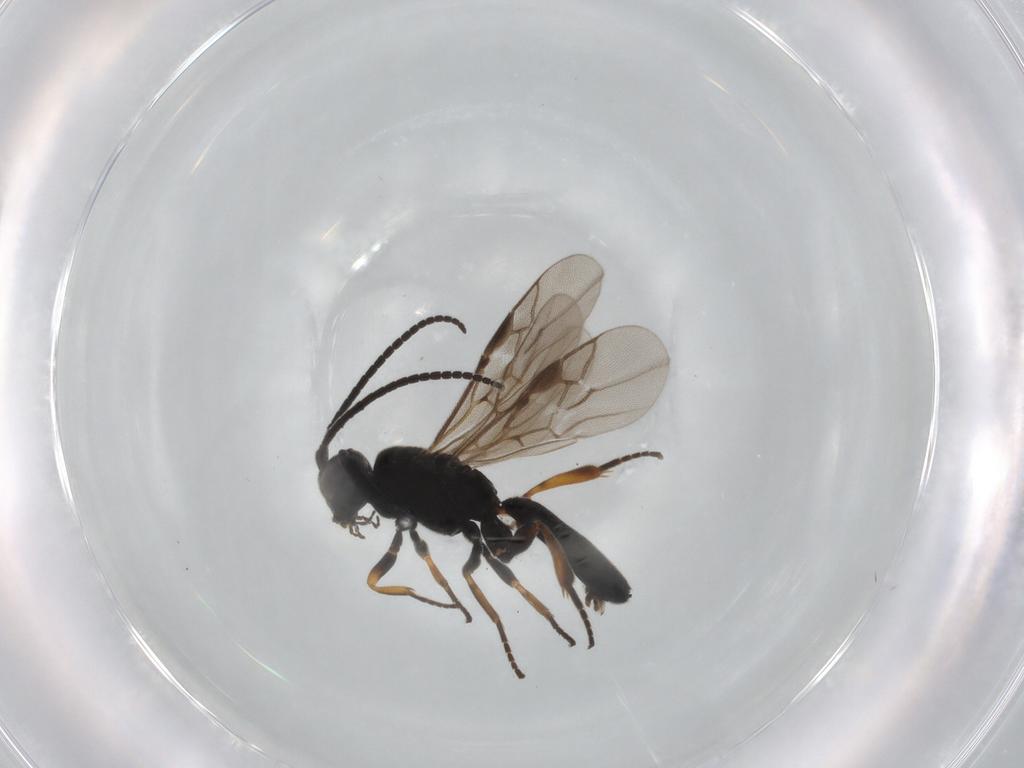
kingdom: Animalia
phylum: Arthropoda
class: Insecta
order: Hymenoptera
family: Braconidae
